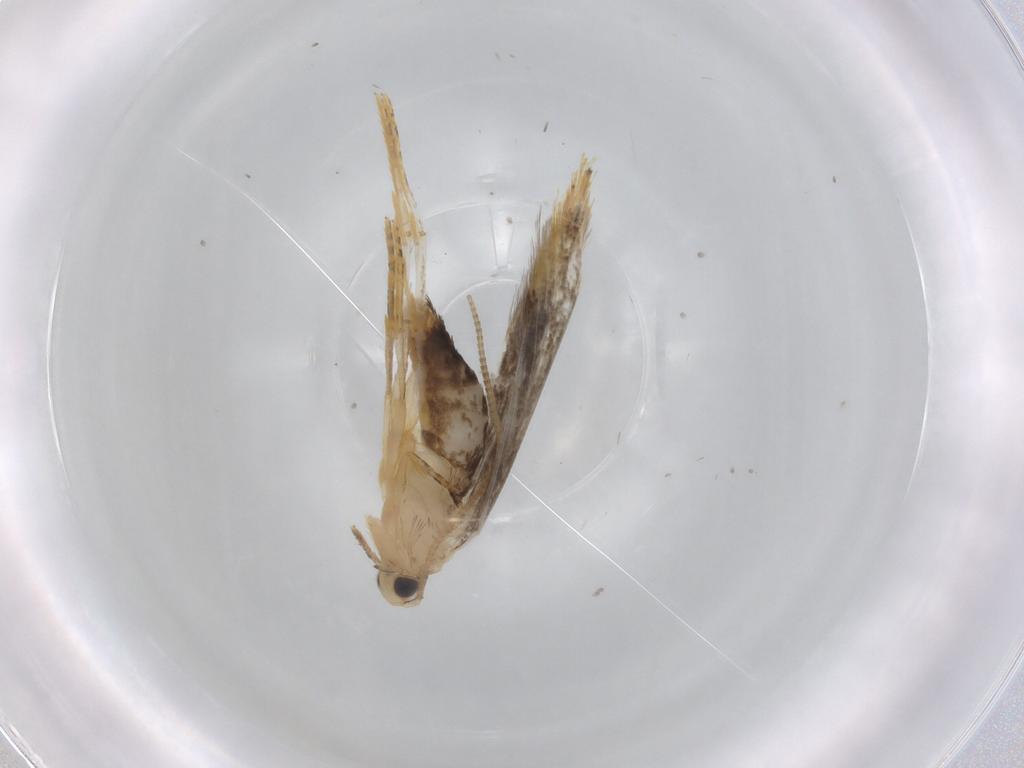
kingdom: Animalia
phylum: Arthropoda
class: Insecta
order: Lepidoptera
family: Tineidae
